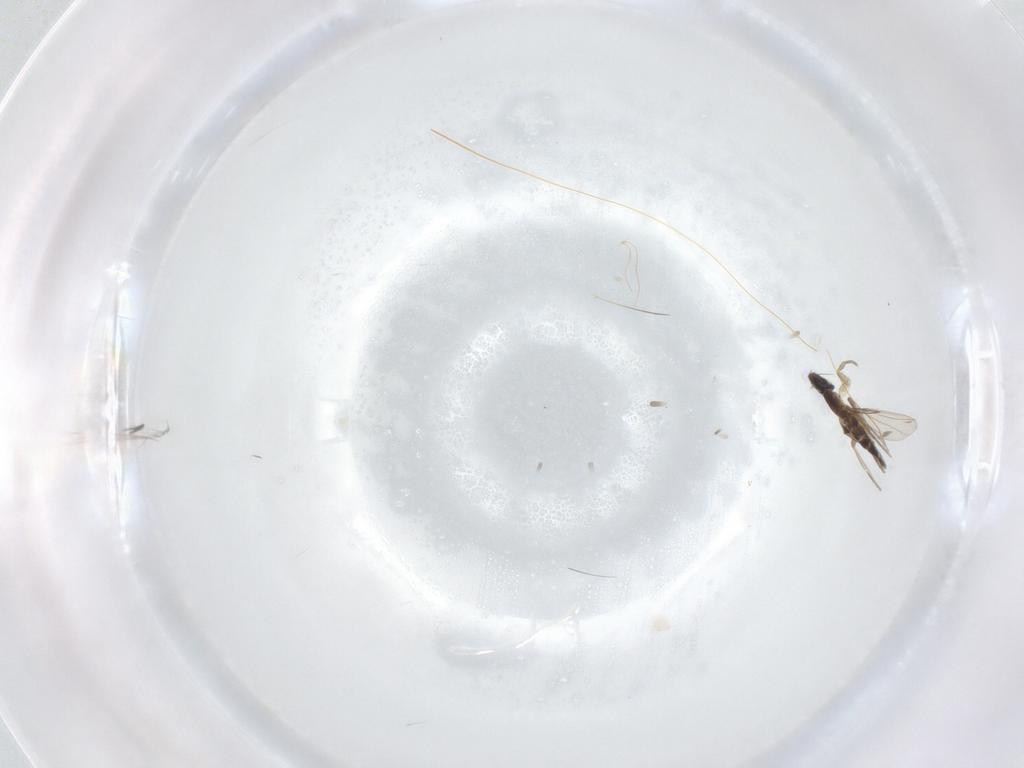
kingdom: Animalia
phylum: Arthropoda
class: Insecta
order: Diptera
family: Phoridae
